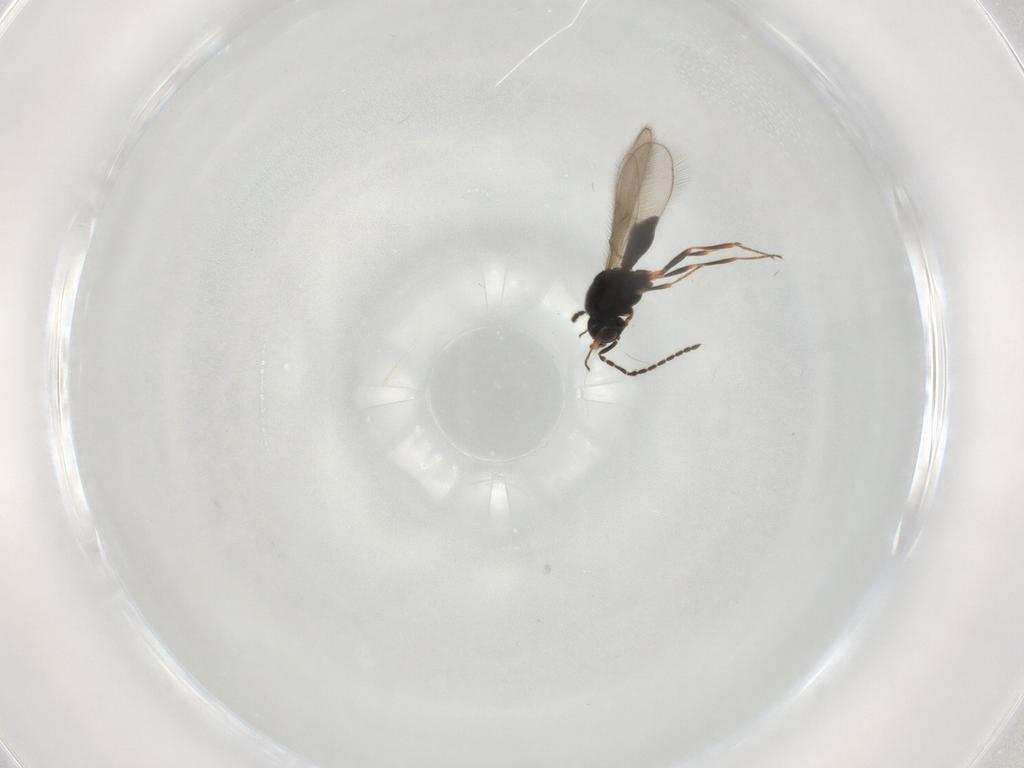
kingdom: Animalia
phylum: Arthropoda
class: Insecta
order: Hymenoptera
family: Scelionidae
